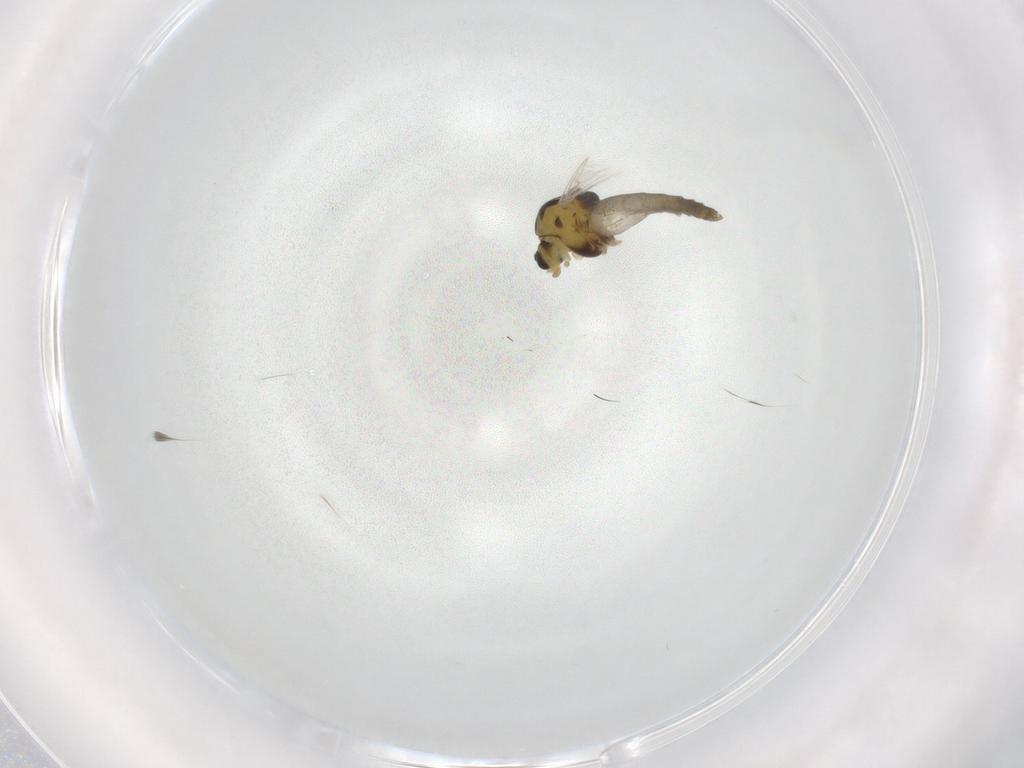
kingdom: Animalia
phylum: Arthropoda
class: Insecta
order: Diptera
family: Chironomidae
